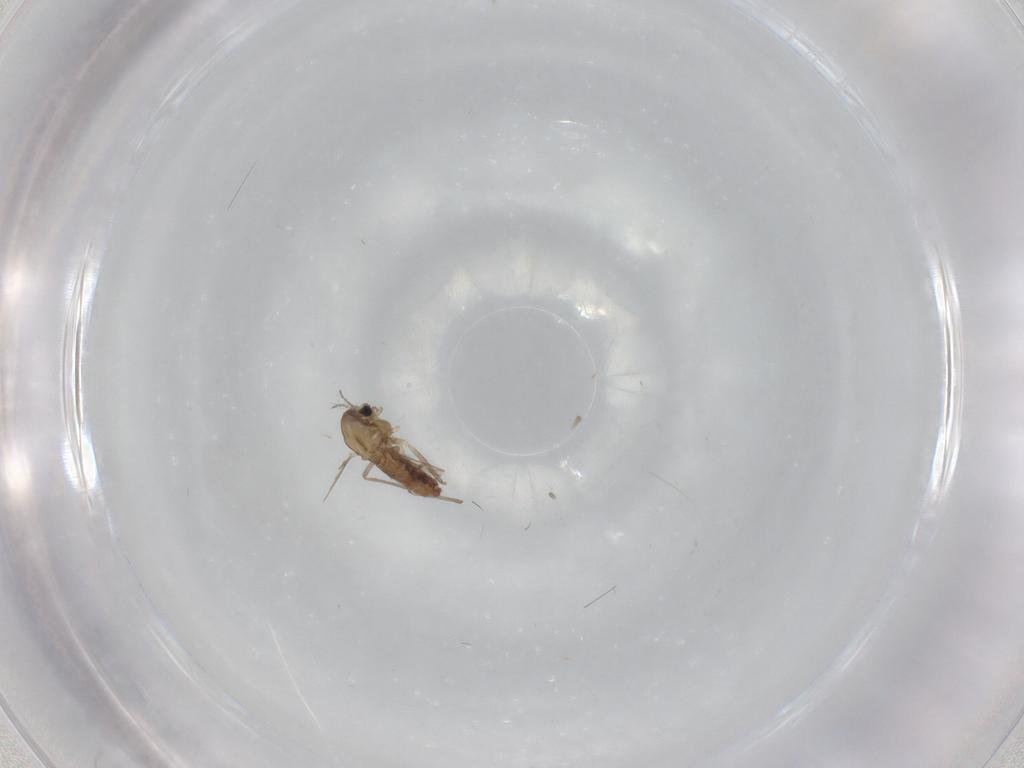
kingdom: Animalia
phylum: Arthropoda
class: Insecta
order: Diptera
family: Chironomidae
